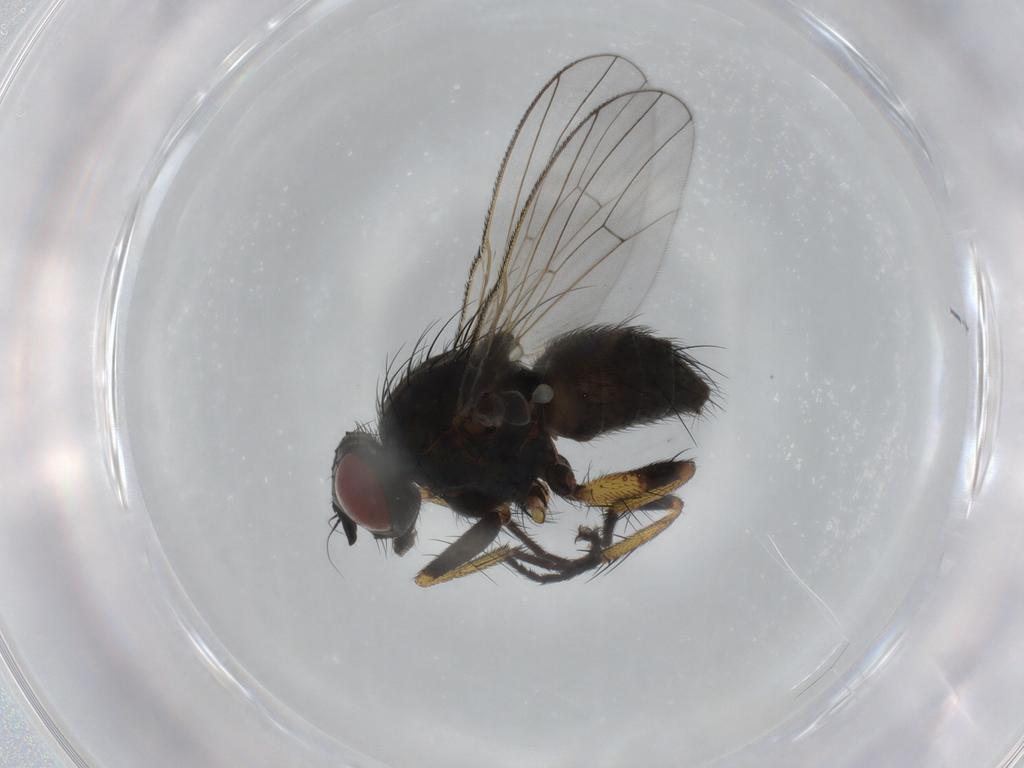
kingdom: Animalia
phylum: Arthropoda
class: Insecta
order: Diptera
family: Muscidae
